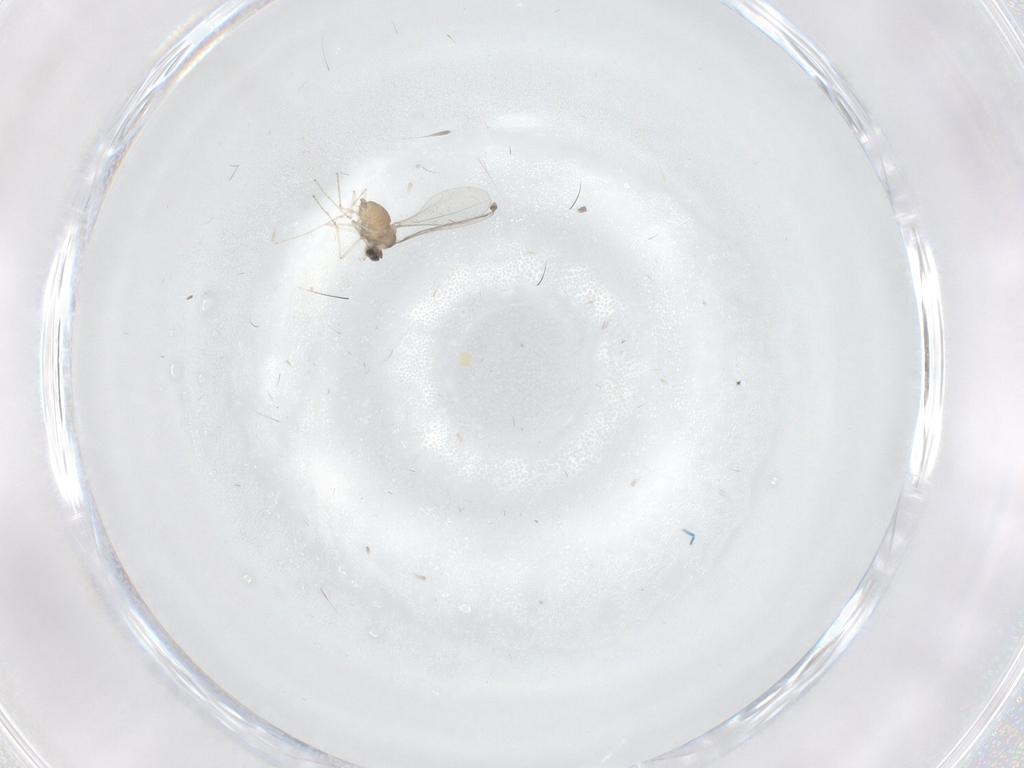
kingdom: Animalia
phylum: Arthropoda
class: Insecta
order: Diptera
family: Cecidomyiidae
